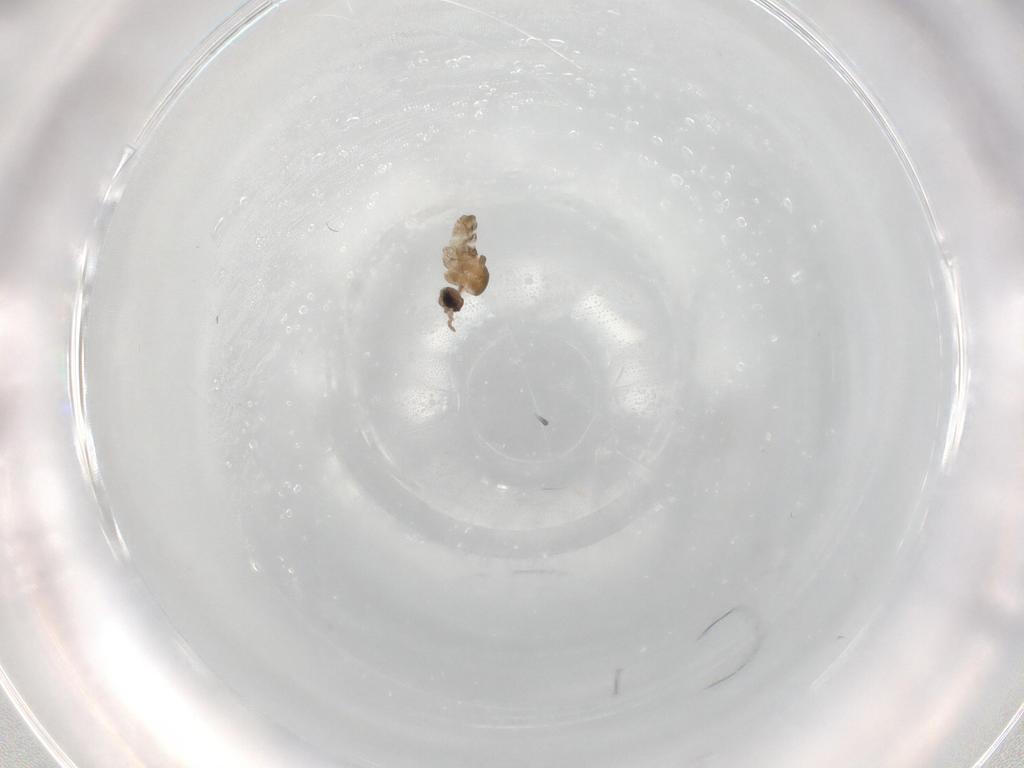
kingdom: Animalia
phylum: Arthropoda
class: Insecta
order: Diptera
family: Cecidomyiidae
